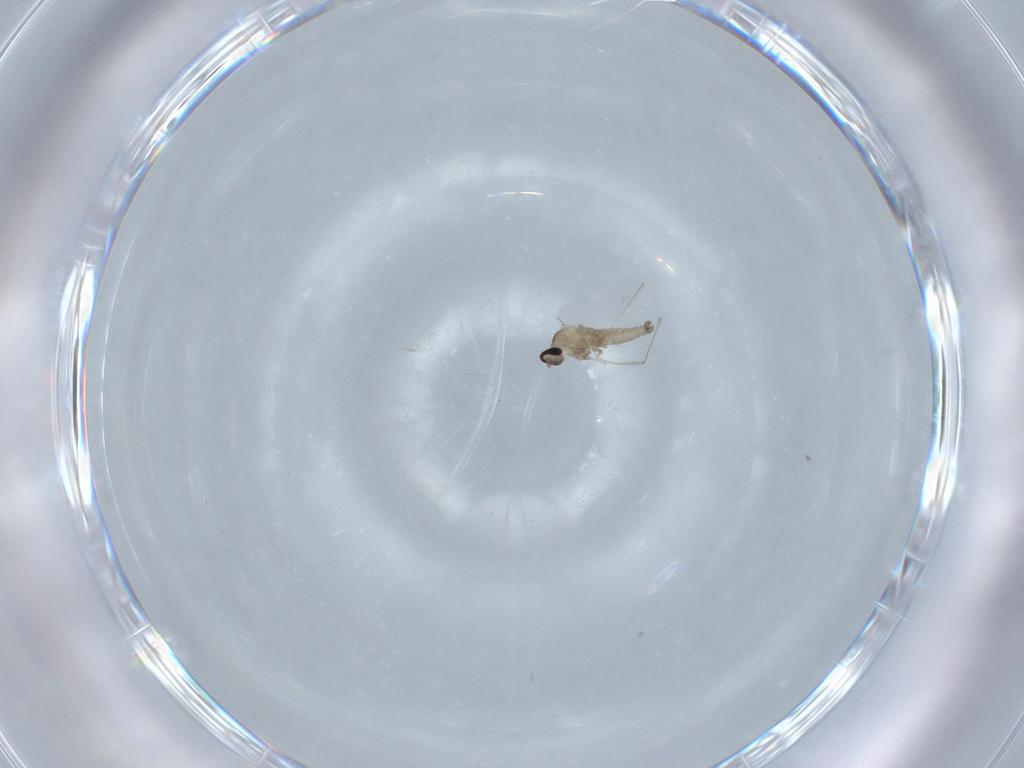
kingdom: Animalia
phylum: Arthropoda
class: Insecta
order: Diptera
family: Cecidomyiidae
